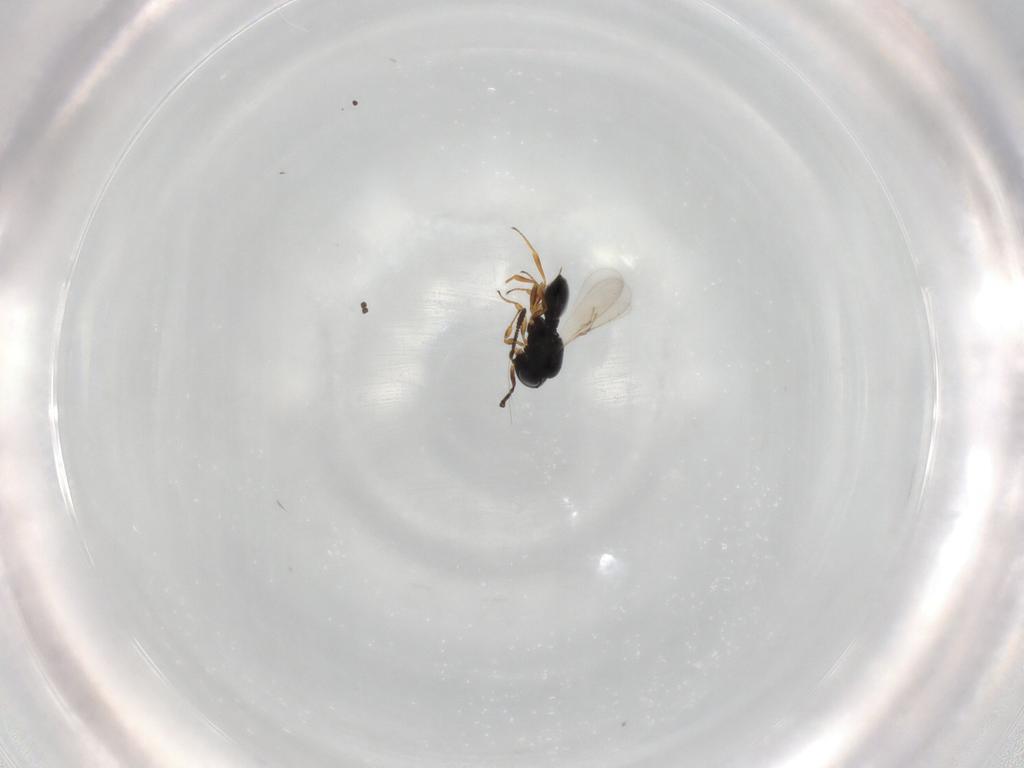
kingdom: Animalia
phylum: Arthropoda
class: Insecta
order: Hymenoptera
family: Scelionidae
